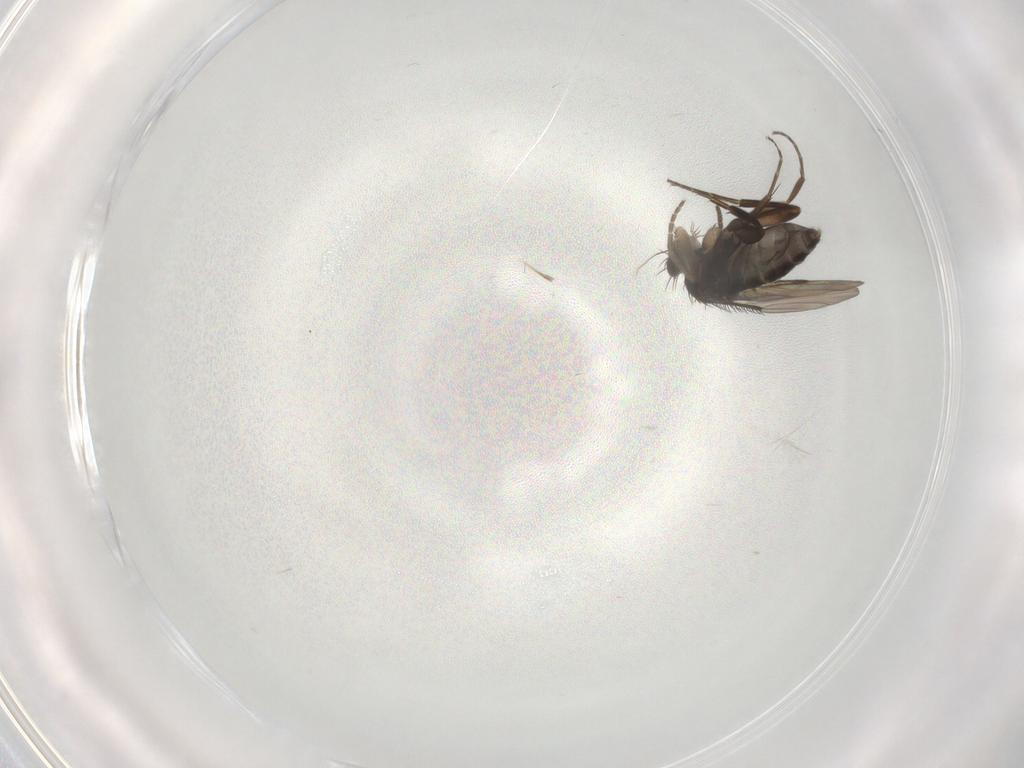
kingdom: Animalia
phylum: Arthropoda
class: Insecta
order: Diptera
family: Phoridae
